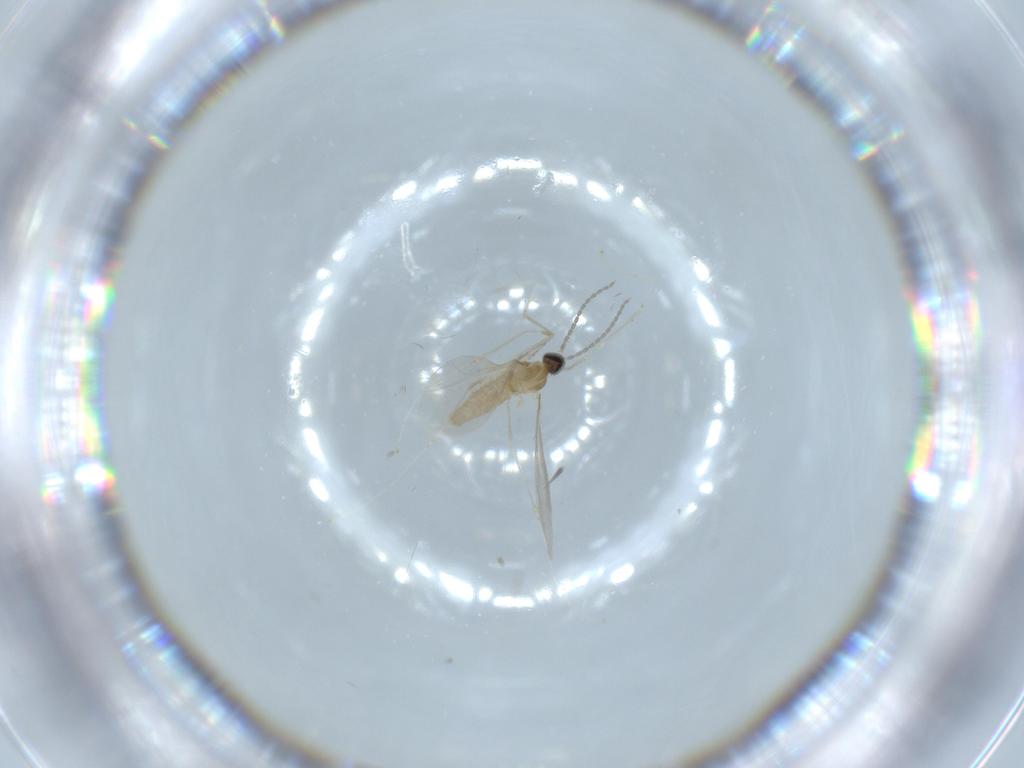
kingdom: Animalia
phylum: Arthropoda
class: Insecta
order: Diptera
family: Cecidomyiidae
